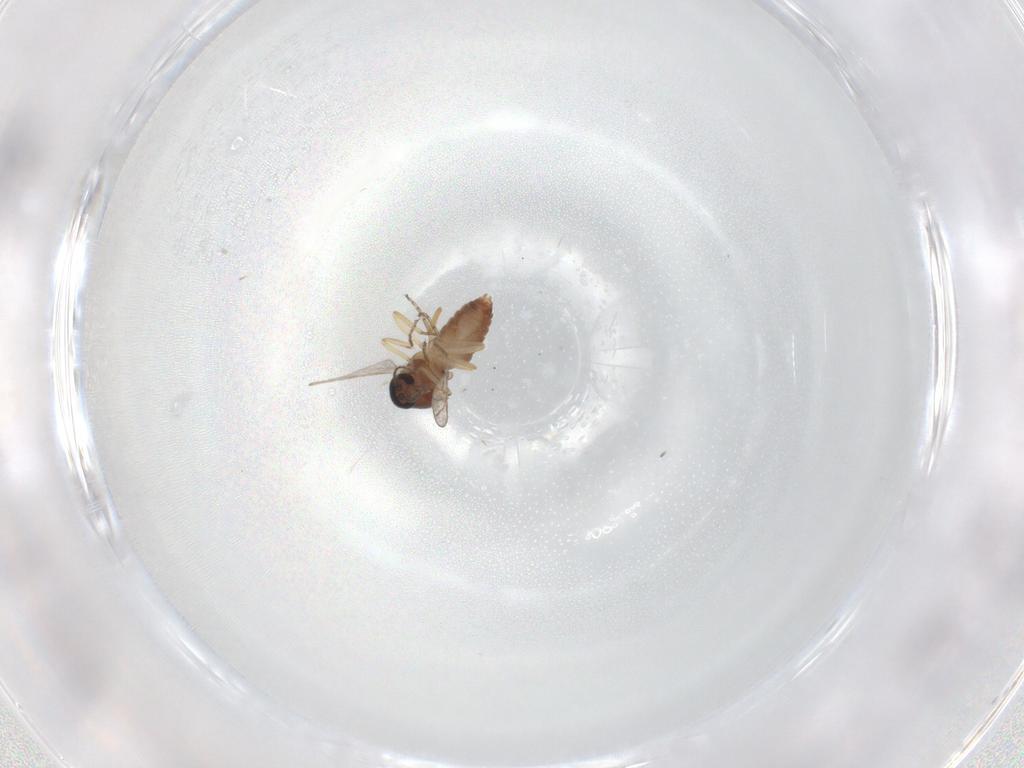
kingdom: Animalia
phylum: Arthropoda
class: Insecta
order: Diptera
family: Ceratopogonidae
